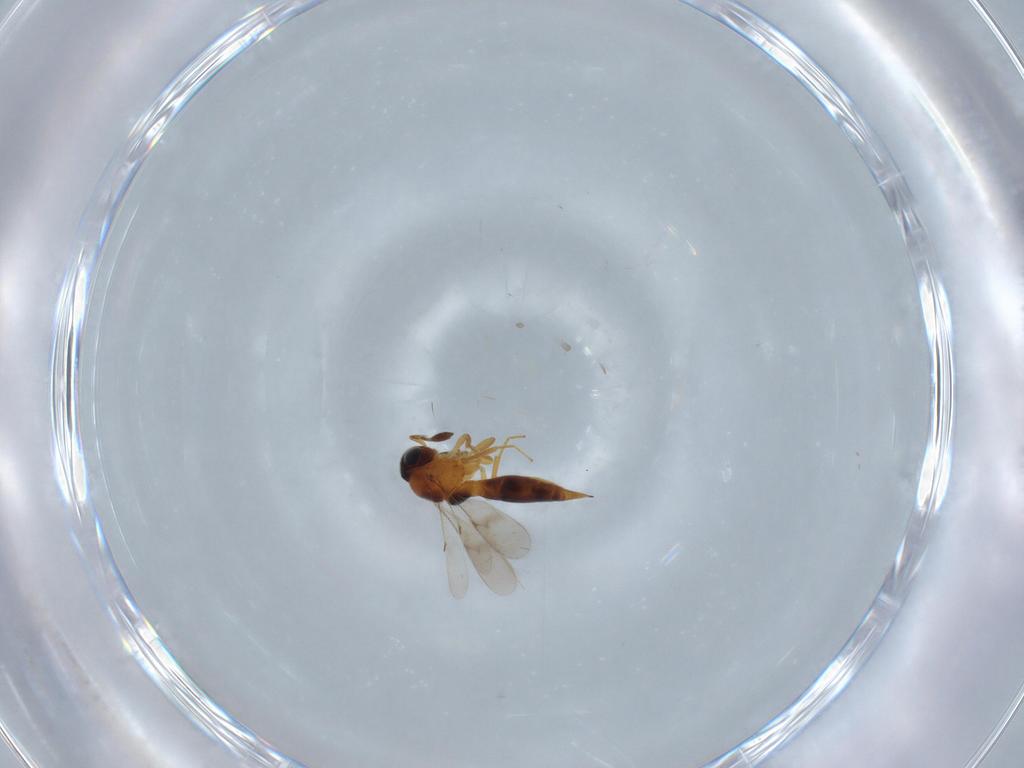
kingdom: Animalia
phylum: Arthropoda
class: Insecta
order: Hymenoptera
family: Scelionidae
